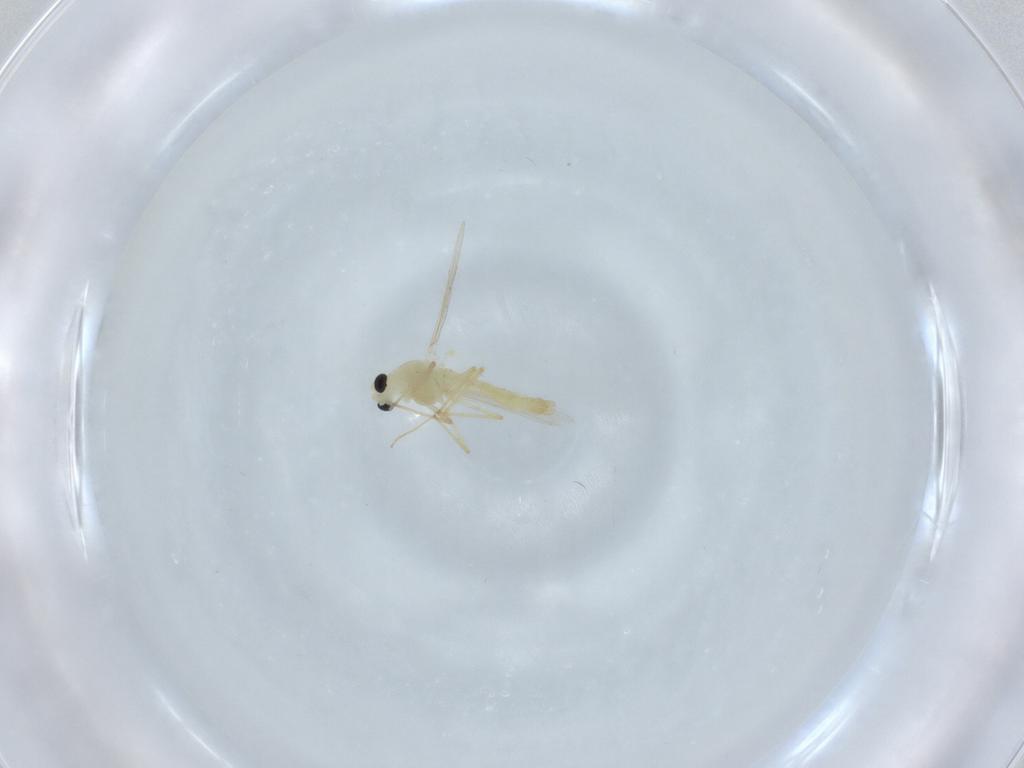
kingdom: Animalia
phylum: Arthropoda
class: Insecta
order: Diptera
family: Chironomidae
